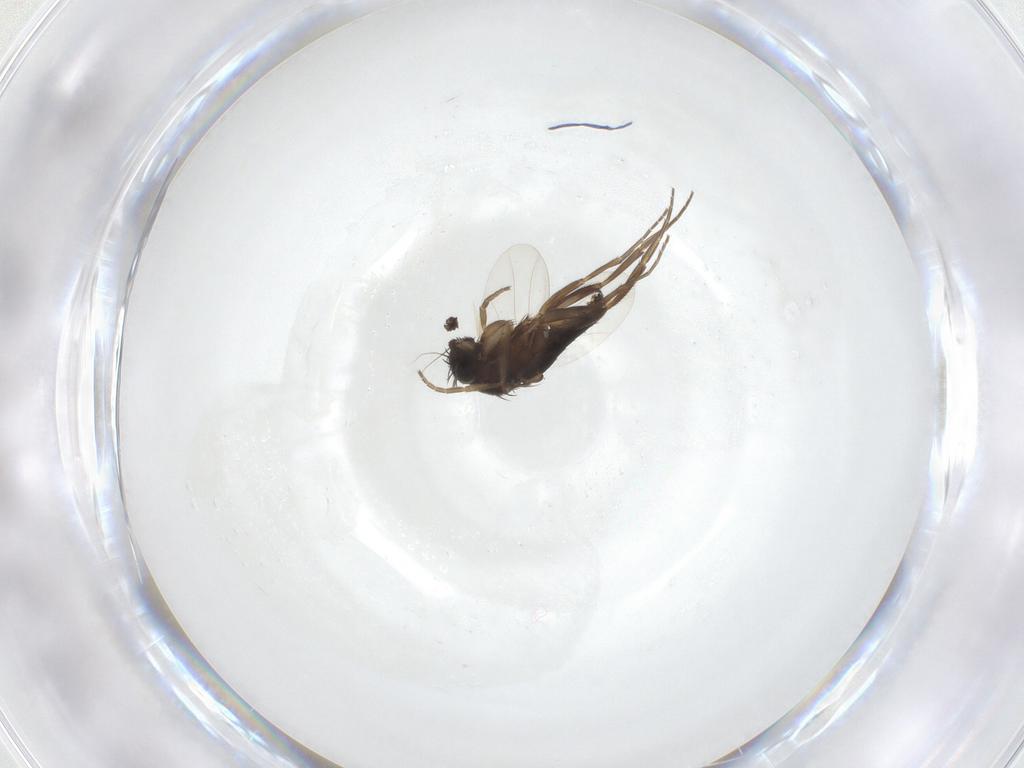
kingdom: Animalia
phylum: Arthropoda
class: Insecta
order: Diptera
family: Phoridae
